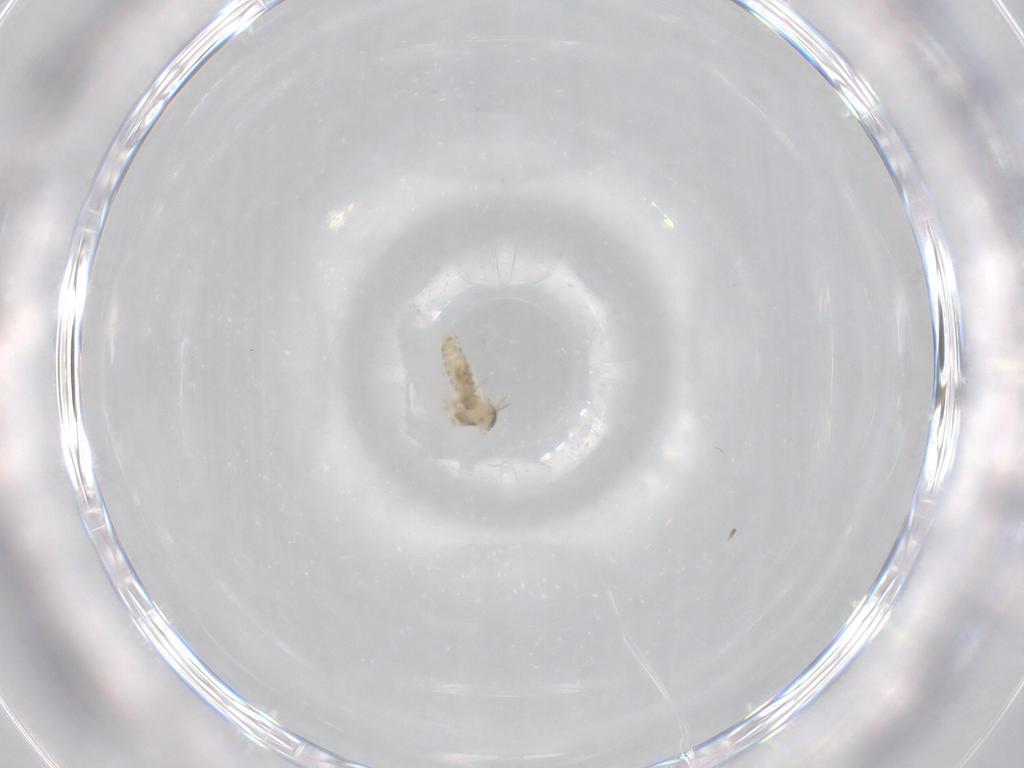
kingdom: Animalia
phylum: Arthropoda
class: Insecta
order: Diptera
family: Cecidomyiidae
